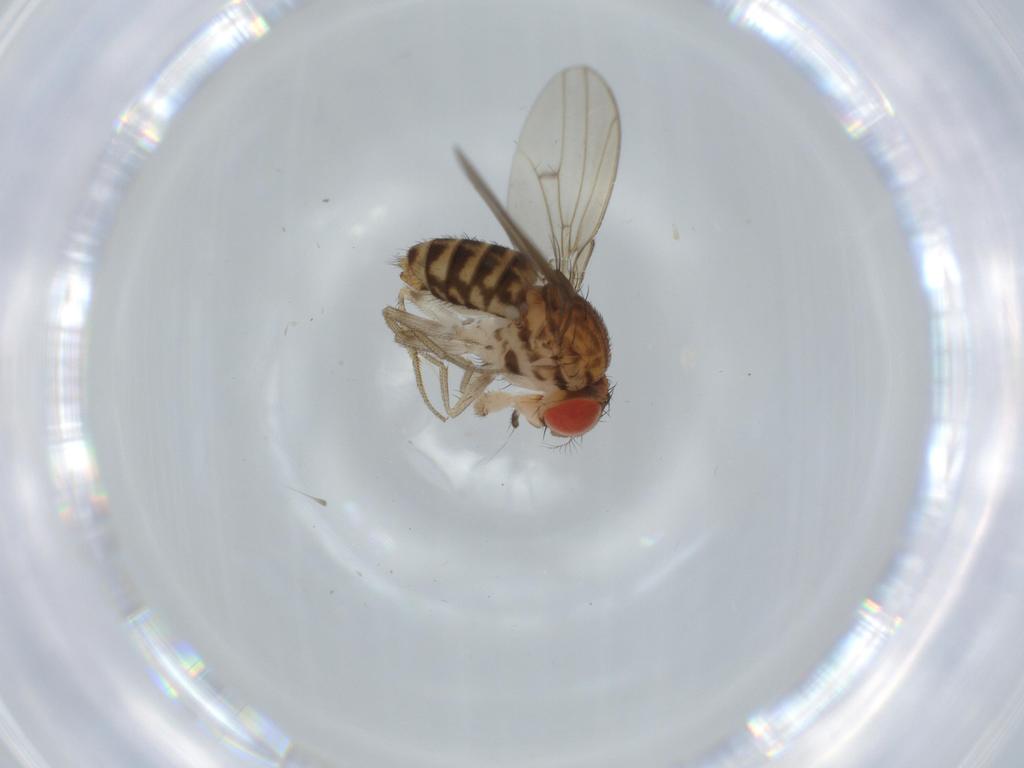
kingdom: Animalia
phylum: Arthropoda
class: Insecta
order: Diptera
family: Drosophilidae
